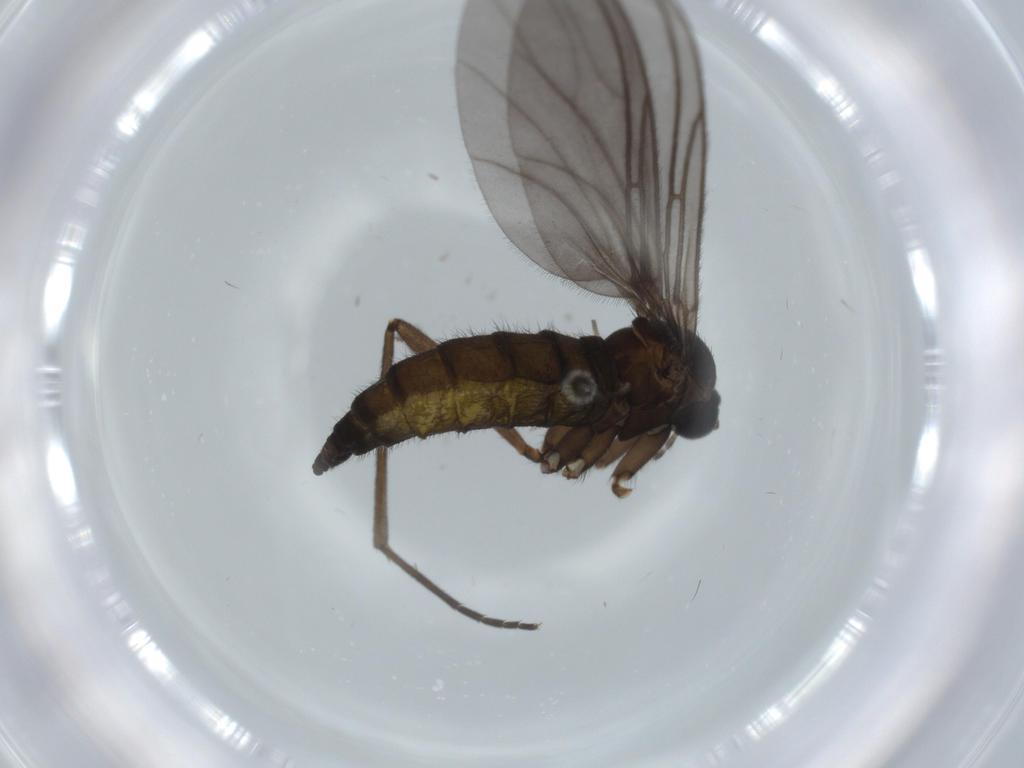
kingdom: Animalia
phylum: Arthropoda
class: Insecta
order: Diptera
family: Sciaridae
